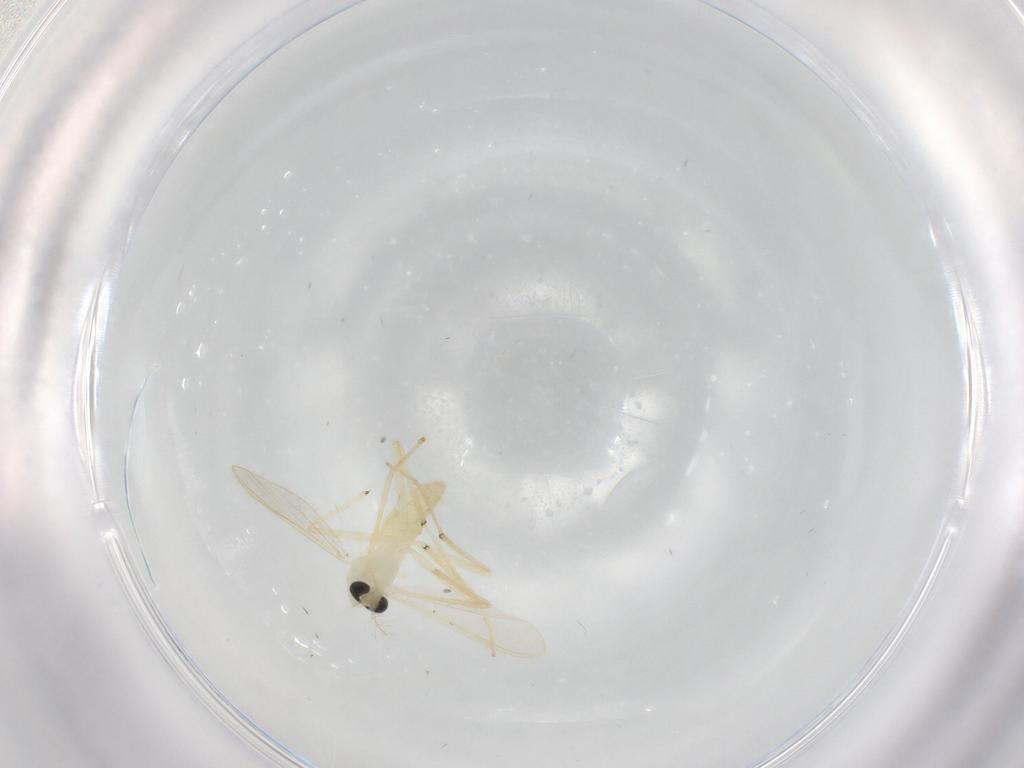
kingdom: Animalia
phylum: Arthropoda
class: Insecta
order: Diptera
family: Chironomidae
